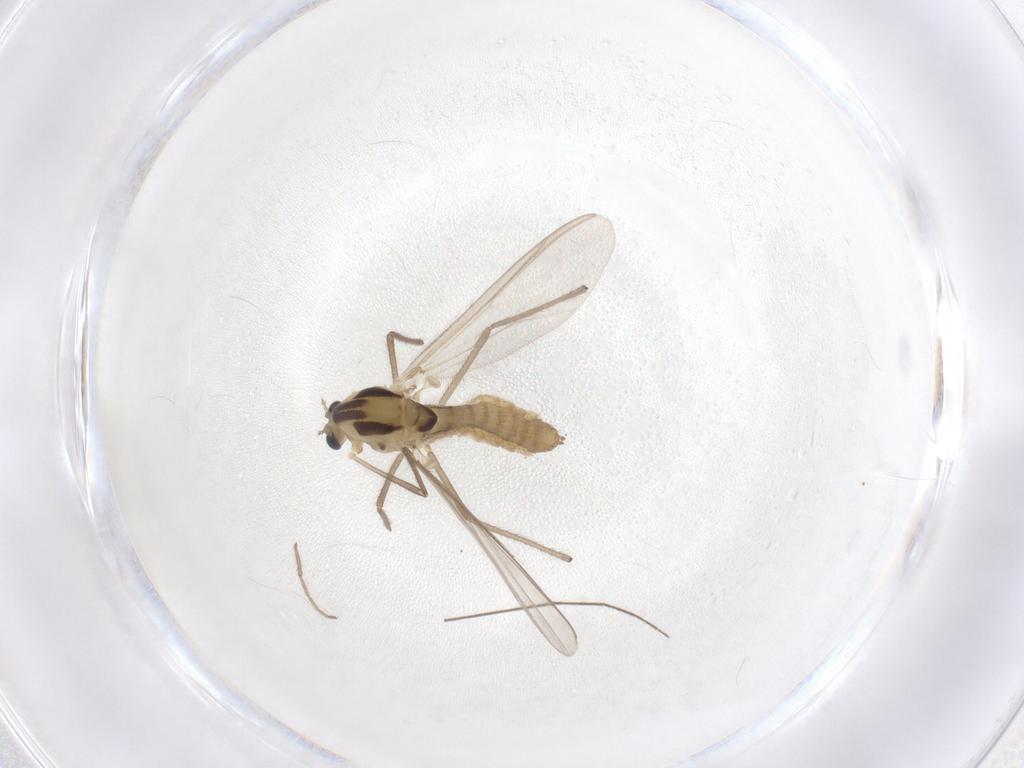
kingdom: Animalia
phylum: Arthropoda
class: Insecta
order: Diptera
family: Chironomidae
